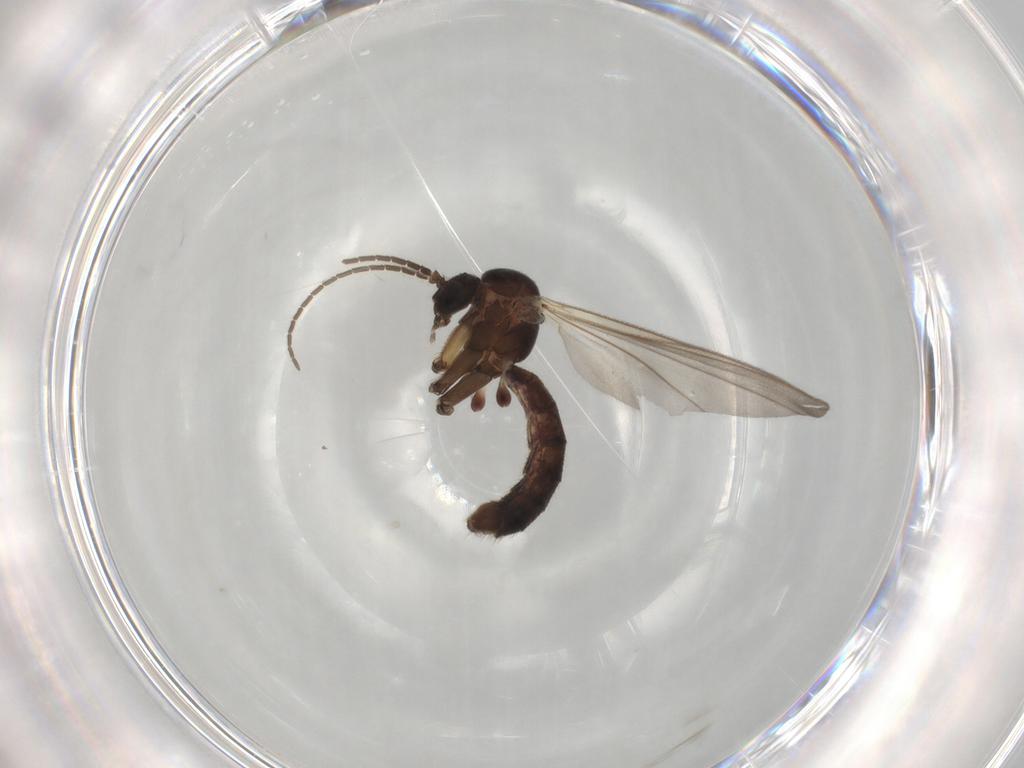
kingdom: Animalia
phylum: Arthropoda
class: Insecta
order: Diptera
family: Mycetophilidae
